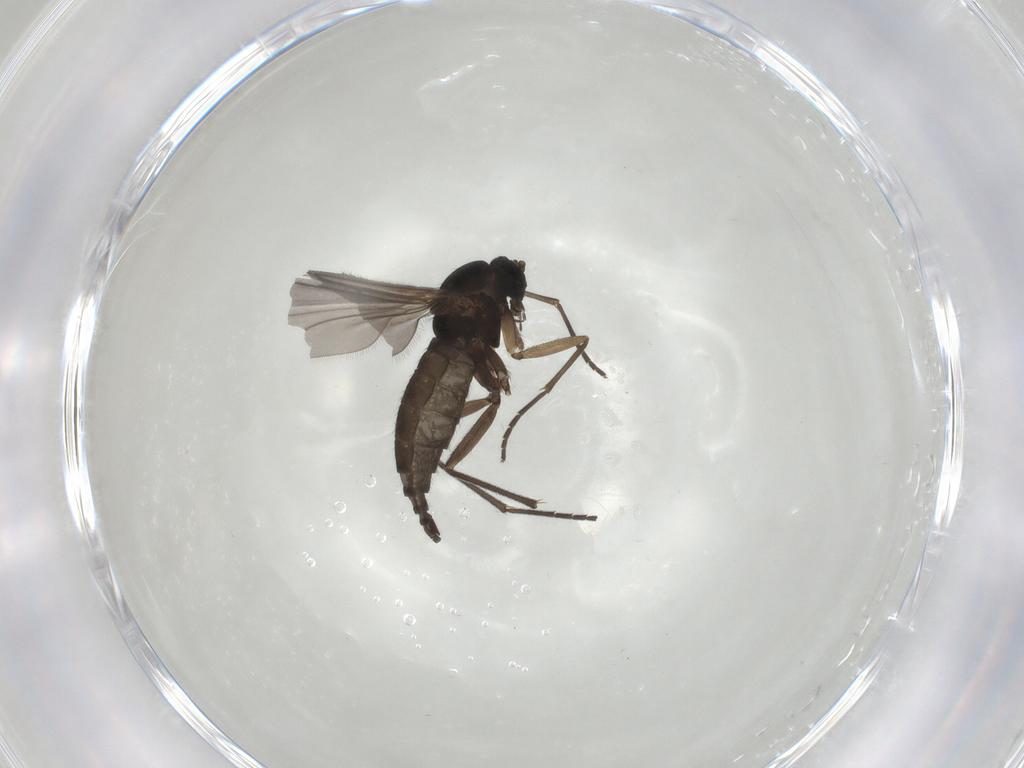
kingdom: Animalia
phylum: Arthropoda
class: Insecta
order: Diptera
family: Sciaridae
